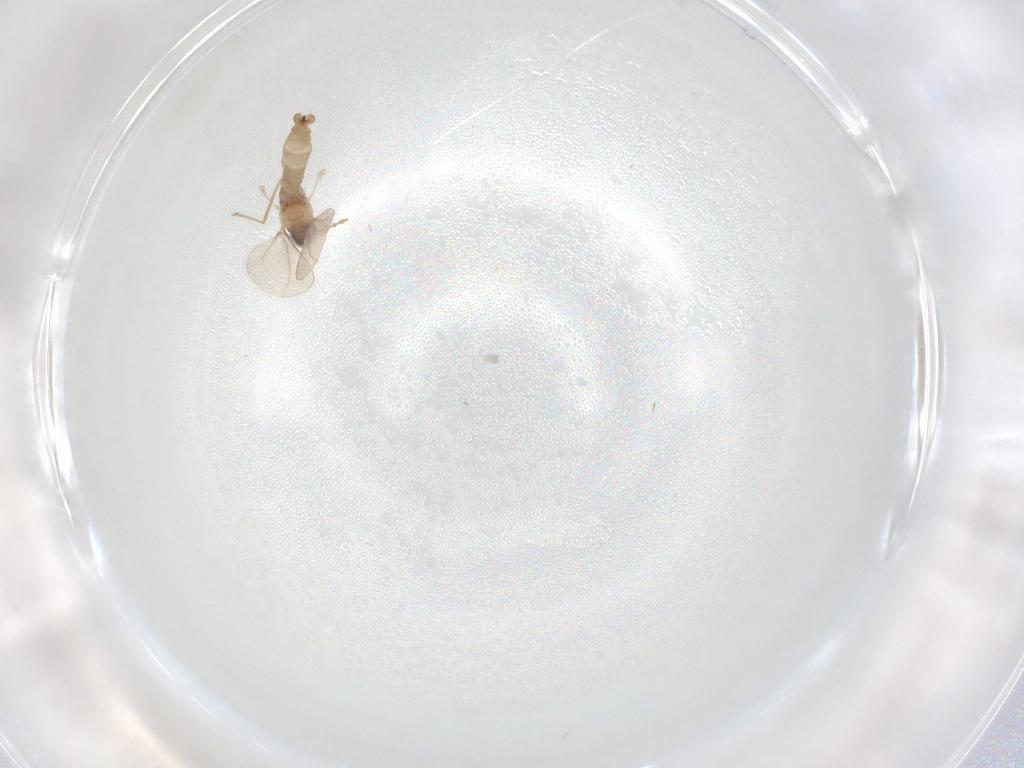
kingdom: Animalia
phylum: Arthropoda
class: Insecta
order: Diptera
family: Cecidomyiidae
